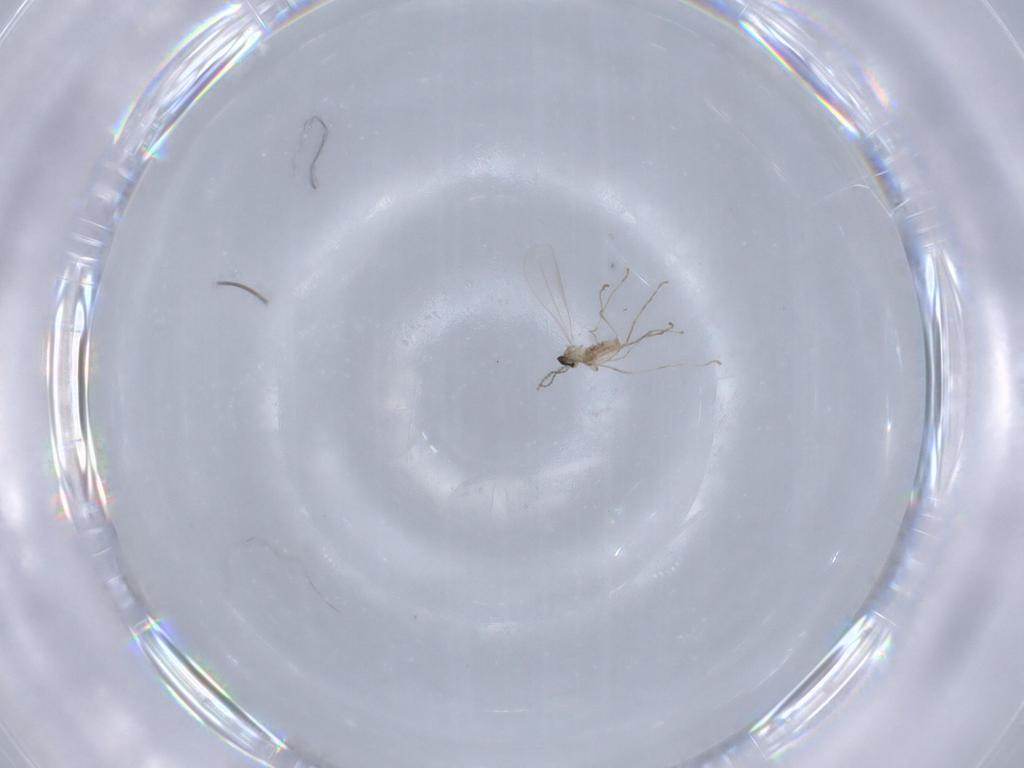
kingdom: Animalia
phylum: Arthropoda
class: Insecta
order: Diptera
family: Cecidomyiidae
